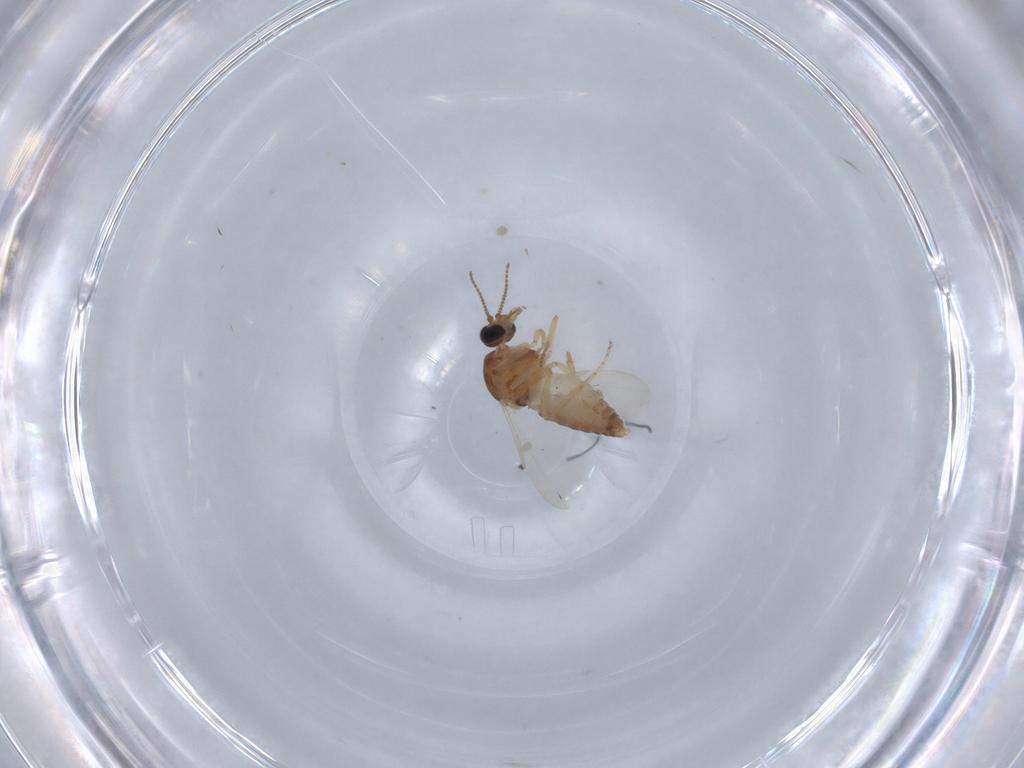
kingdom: Animalia
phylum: Arthropoda
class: Insecta
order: Diptera
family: Ceratopogonidae
